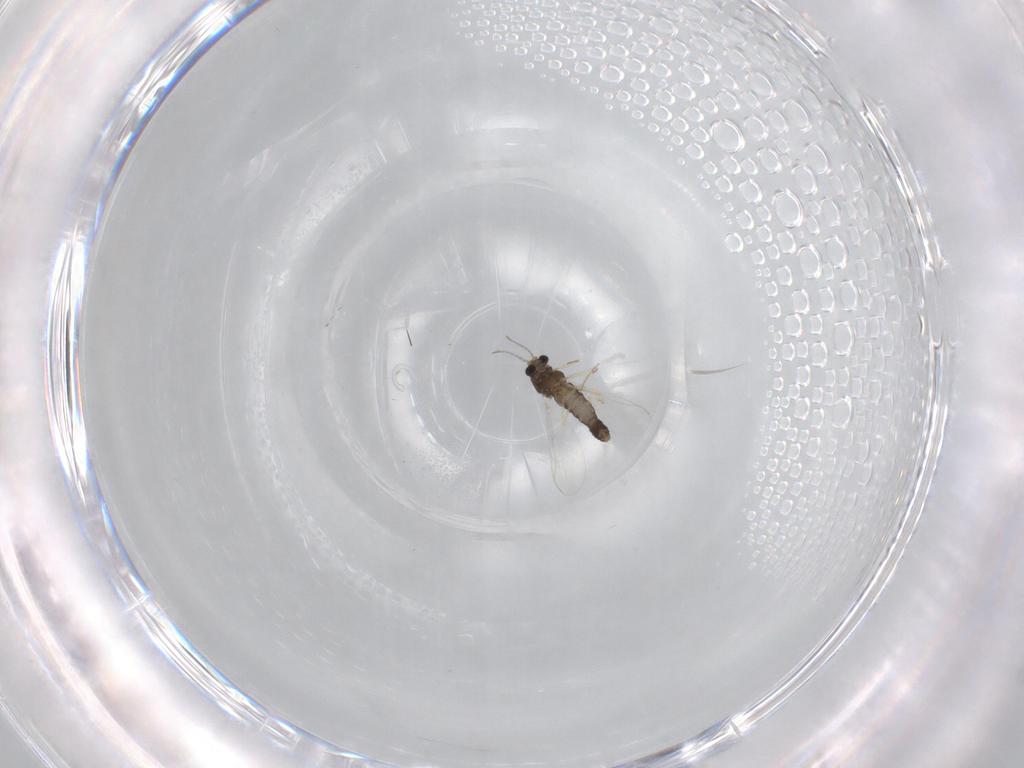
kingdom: Animalia
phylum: Arthropoda
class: Insecta
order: Diptera
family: Chironomidae
